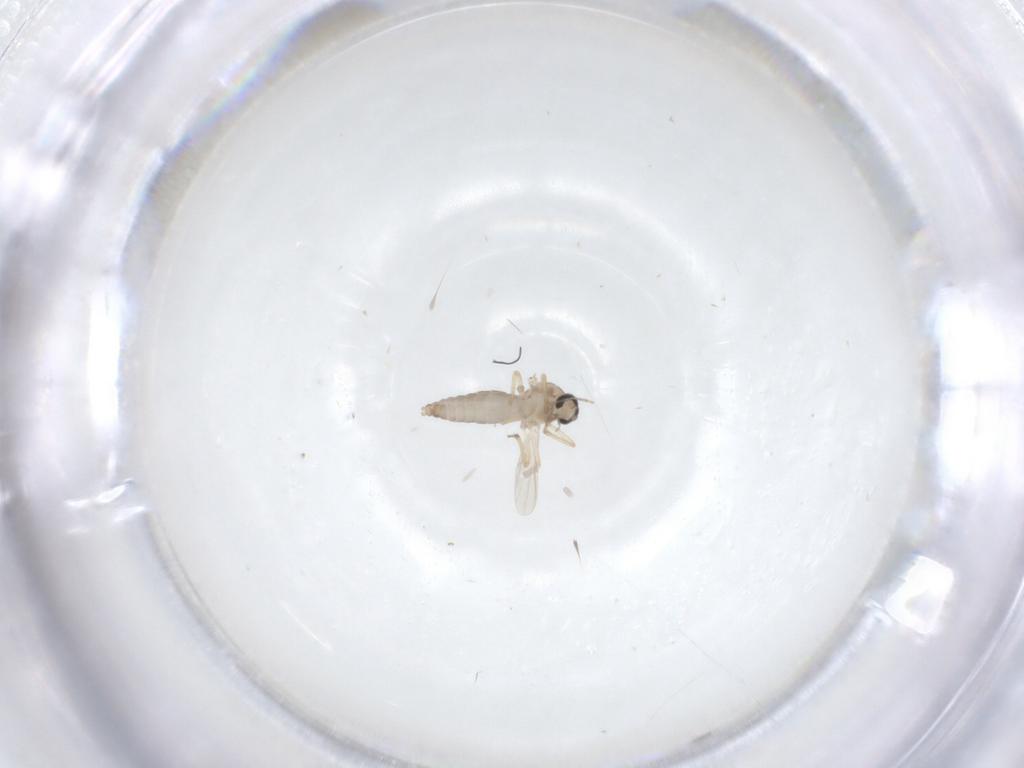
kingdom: Animalia
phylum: Arthropoda
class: Insecta
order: Diptera
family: Ceratopogonidae
